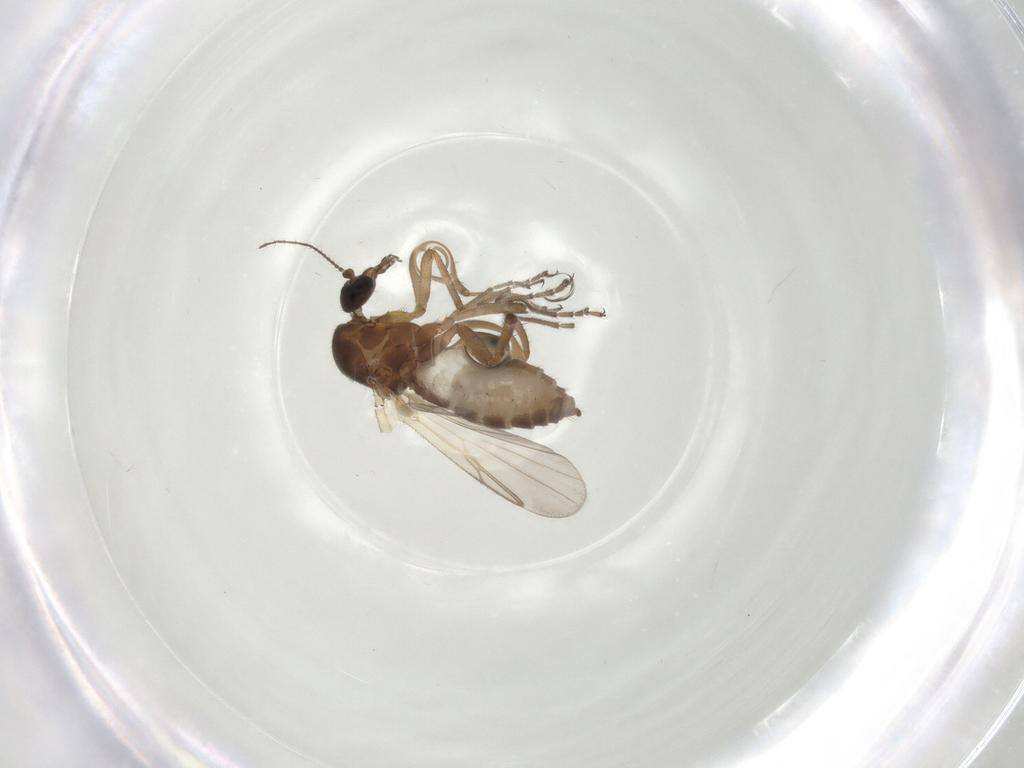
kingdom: Animalia
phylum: Arthropoda
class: Insecta
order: Diptera
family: Ceratopogonidae
